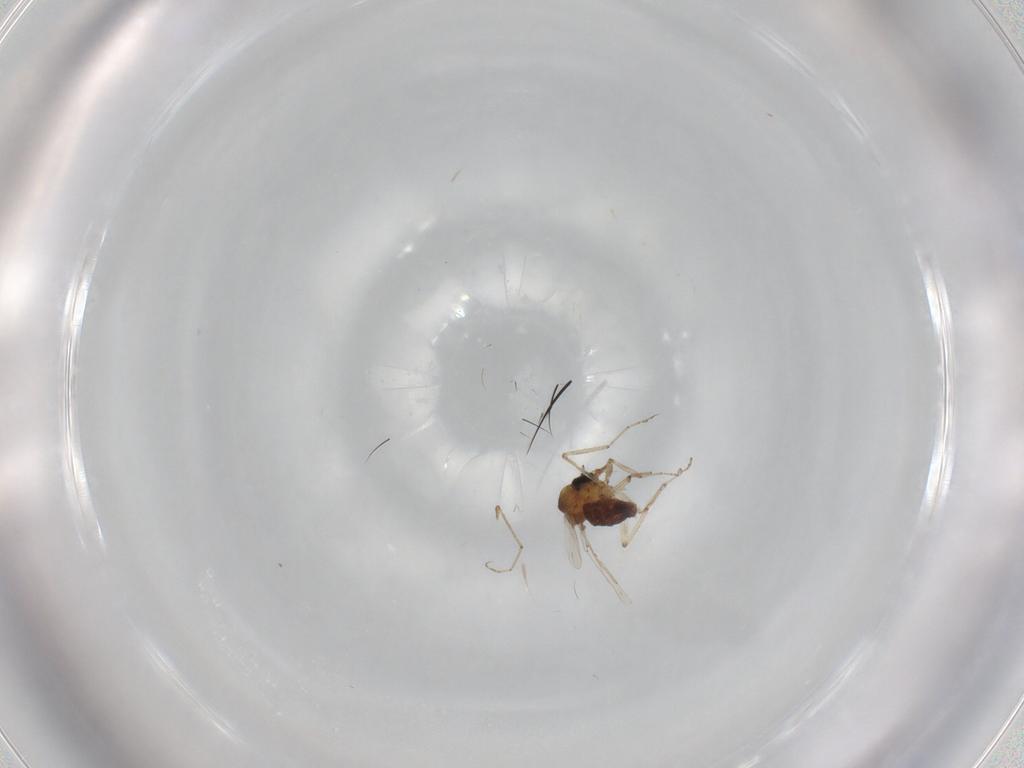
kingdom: Animalia
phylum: Arthropoda
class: Insecta
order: Diptera
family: Ceratopogonidae
